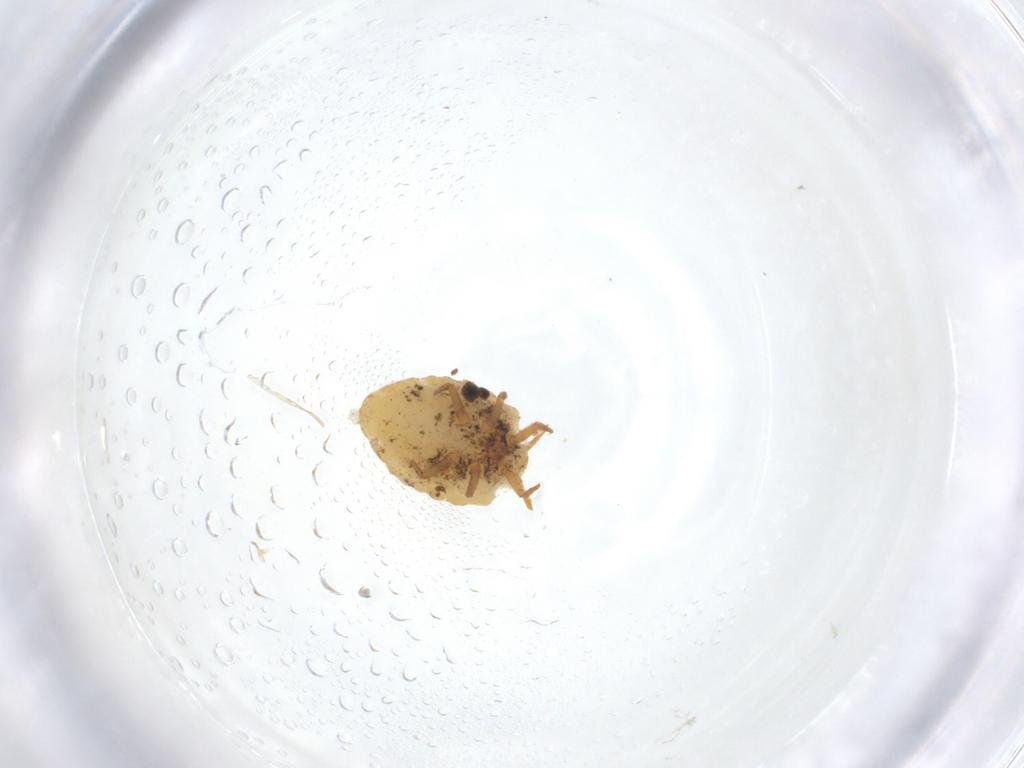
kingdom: Animalia
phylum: Arthropoda
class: Insecta
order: Hemiptera
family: Ortheziidae
